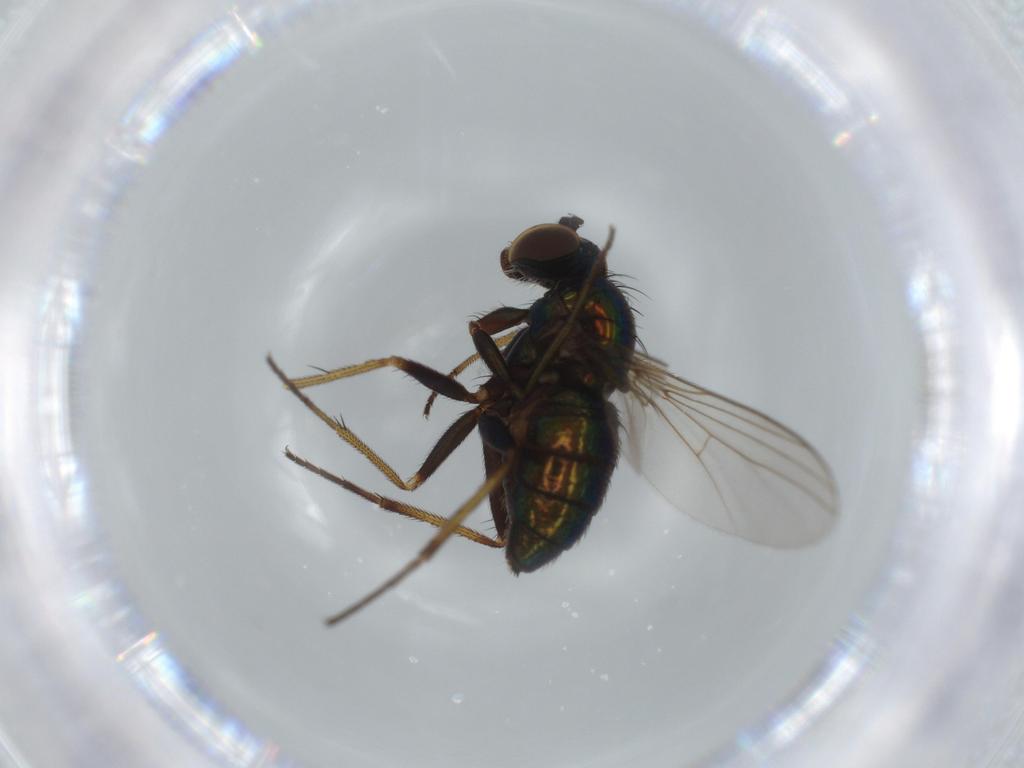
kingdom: Animalia
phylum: Arthropoda
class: Insecta
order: Diptera
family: Dolichopodidae
